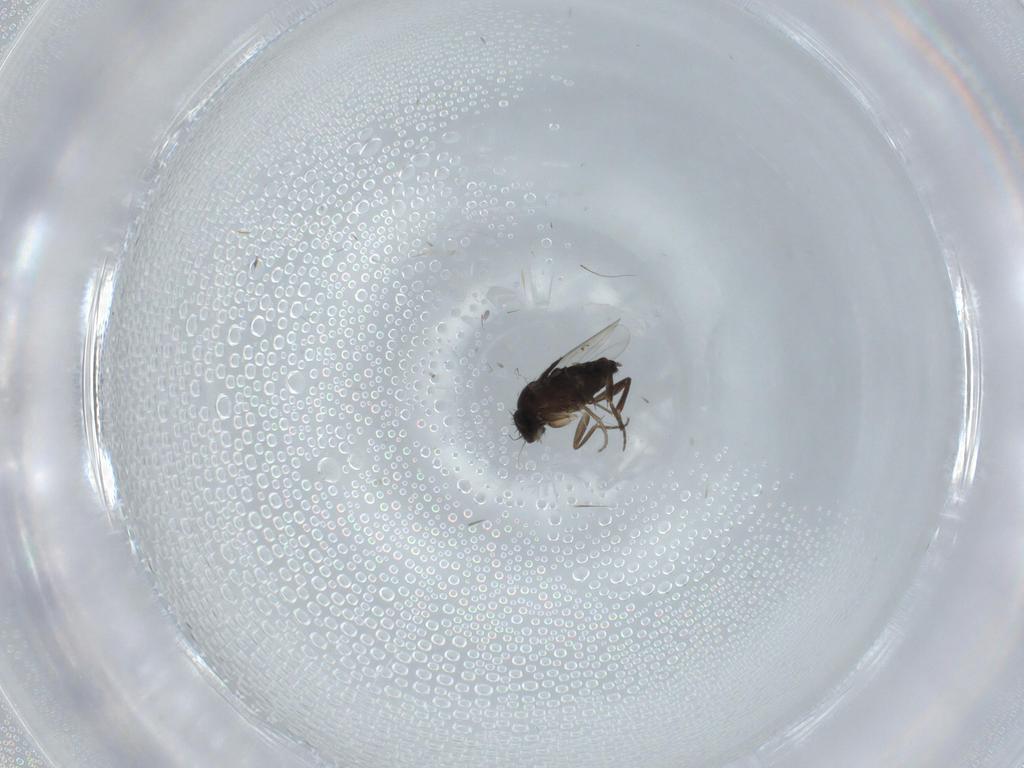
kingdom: Animalia
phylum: Arthropoda
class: Insecta
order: Diptera
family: Phoridae
